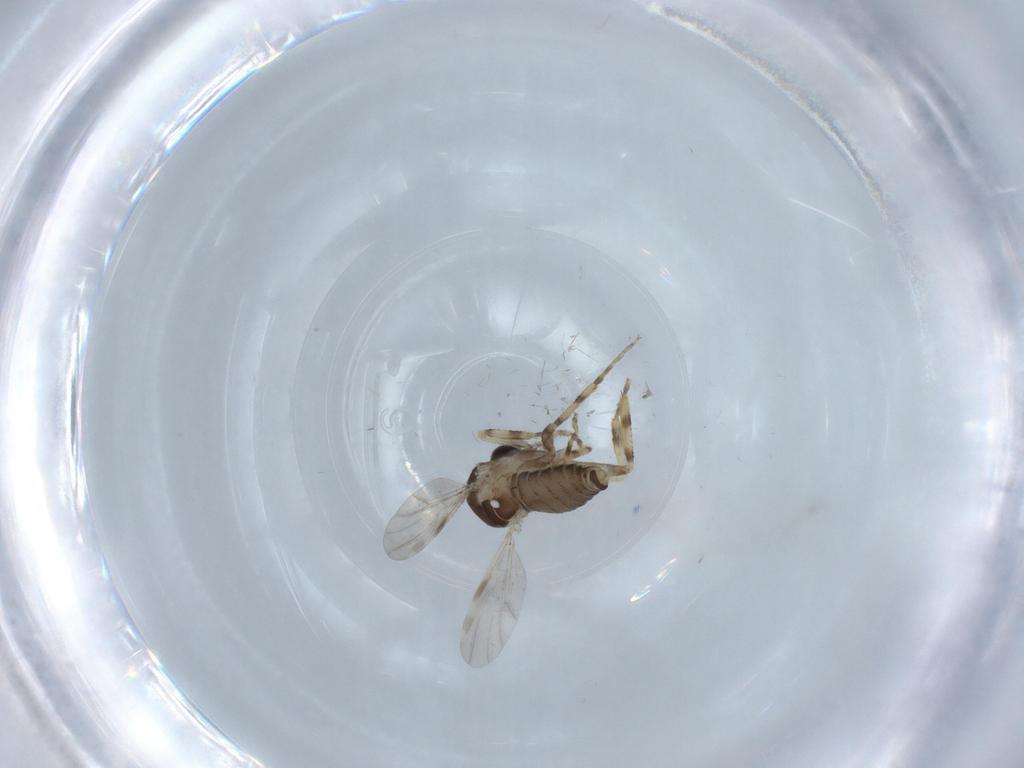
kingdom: Animalia
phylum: Arthropoda
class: Insecta
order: Diptera
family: Ceratopogonidae
